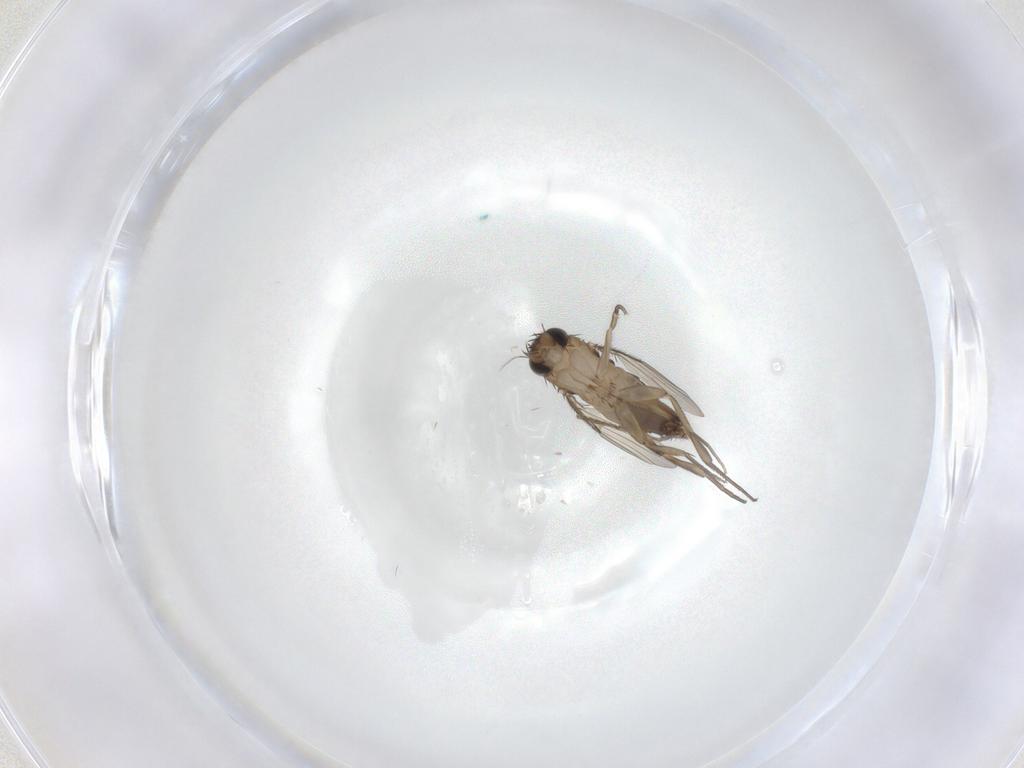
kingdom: Animalia
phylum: Arthropoda
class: Insecta
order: Diptera
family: Phoridae
